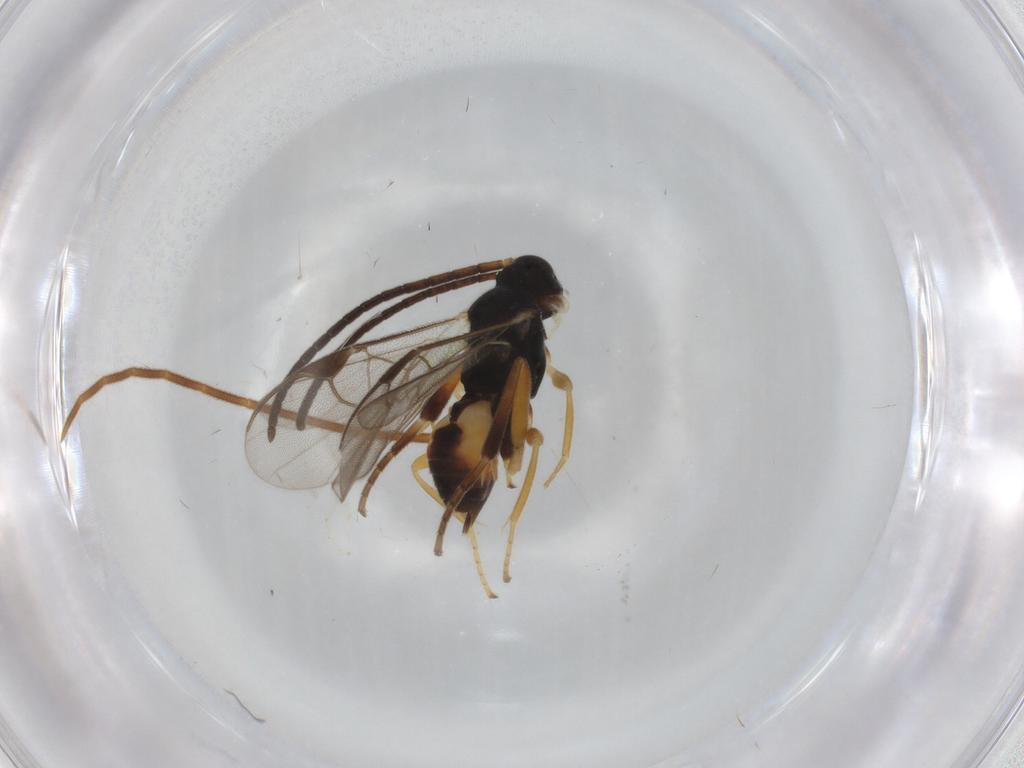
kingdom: Animalia
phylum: Arthropoda
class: Insecta
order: Hymenoptera
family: Braconidae
